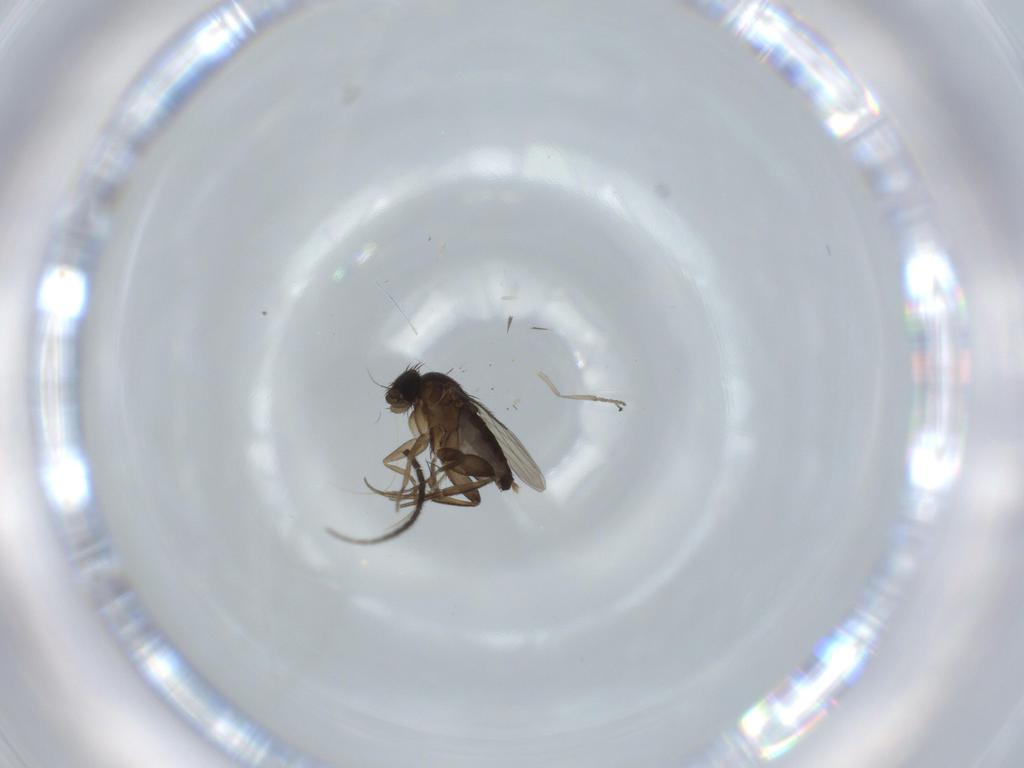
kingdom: Animalia
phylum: Arthropoda
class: Insecta
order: Diptera
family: Phoridae
